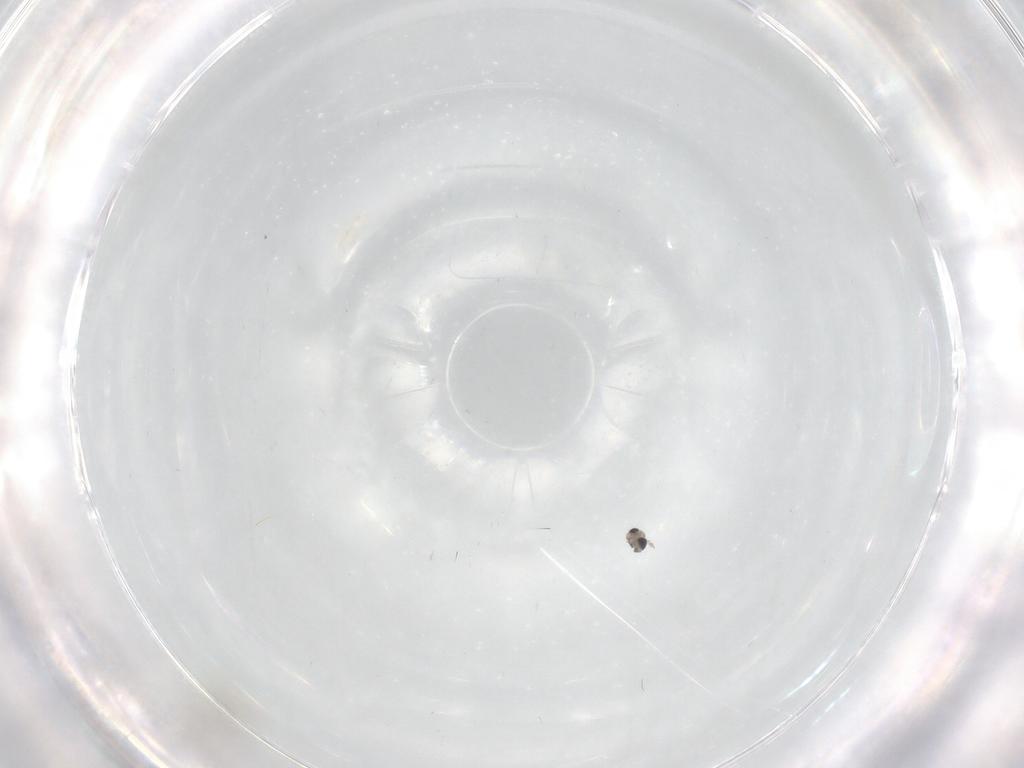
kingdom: Animalia
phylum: Arthropoda
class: Insecta
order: Diptera
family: Cecidomyiidae
